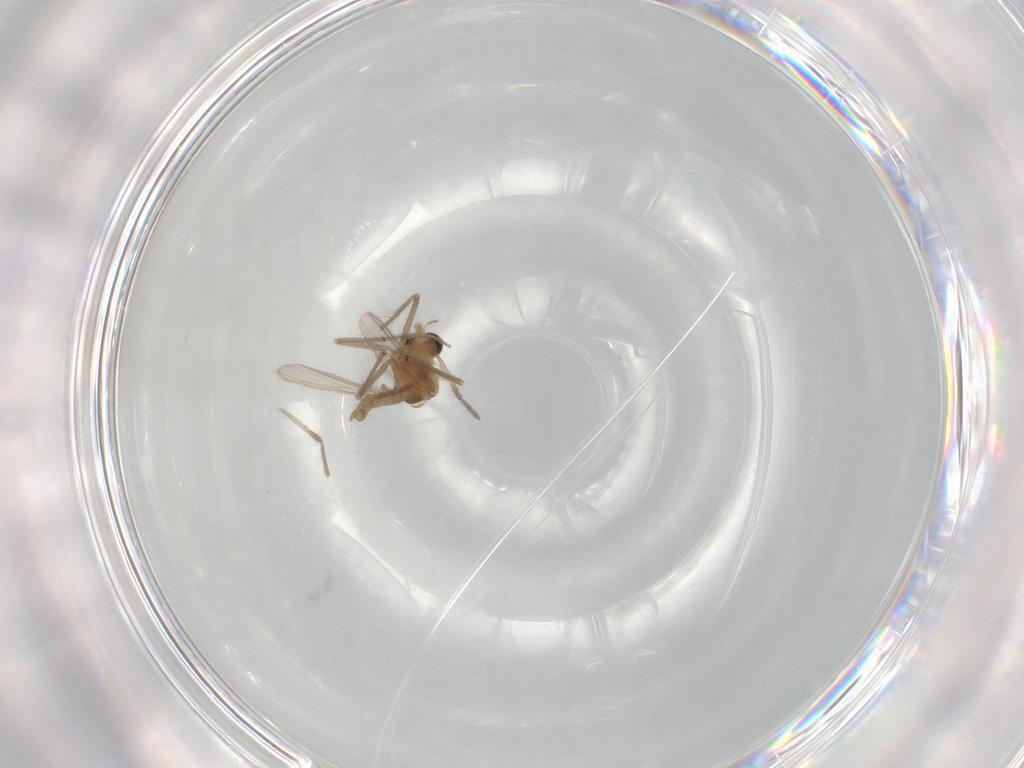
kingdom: Animalia
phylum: Arthropoda
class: Insecta
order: Diptera
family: Chironomidae
